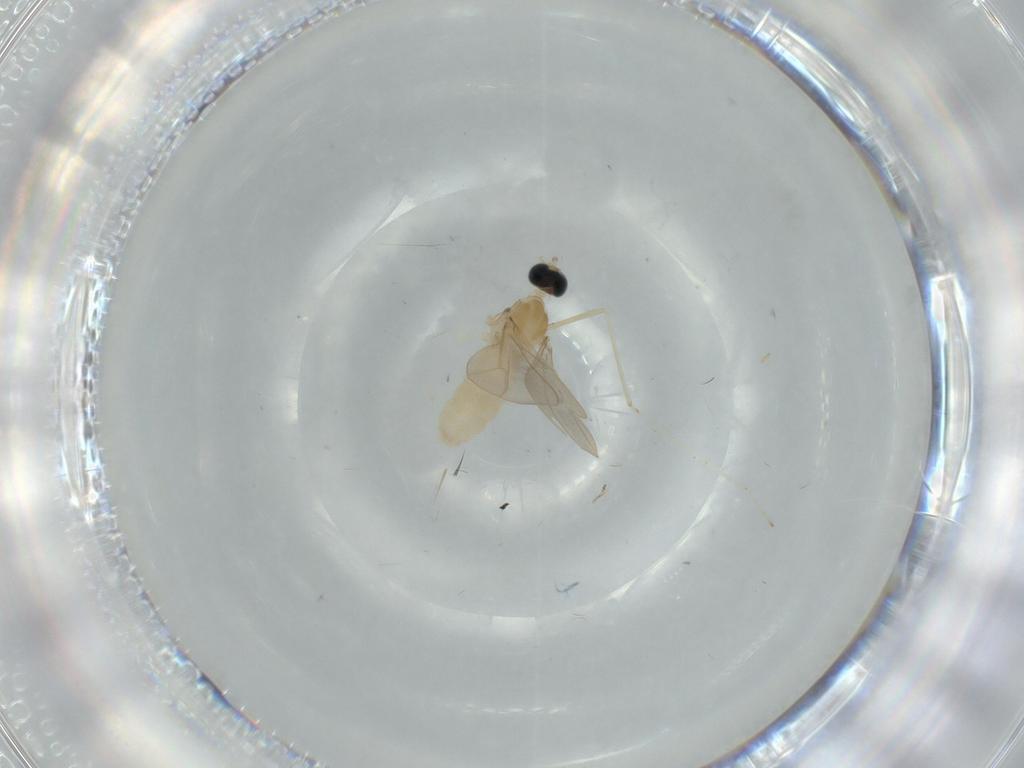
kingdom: Animalia
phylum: Arthropoda
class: Insecta
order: Diptera
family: Cecidomyiidae
